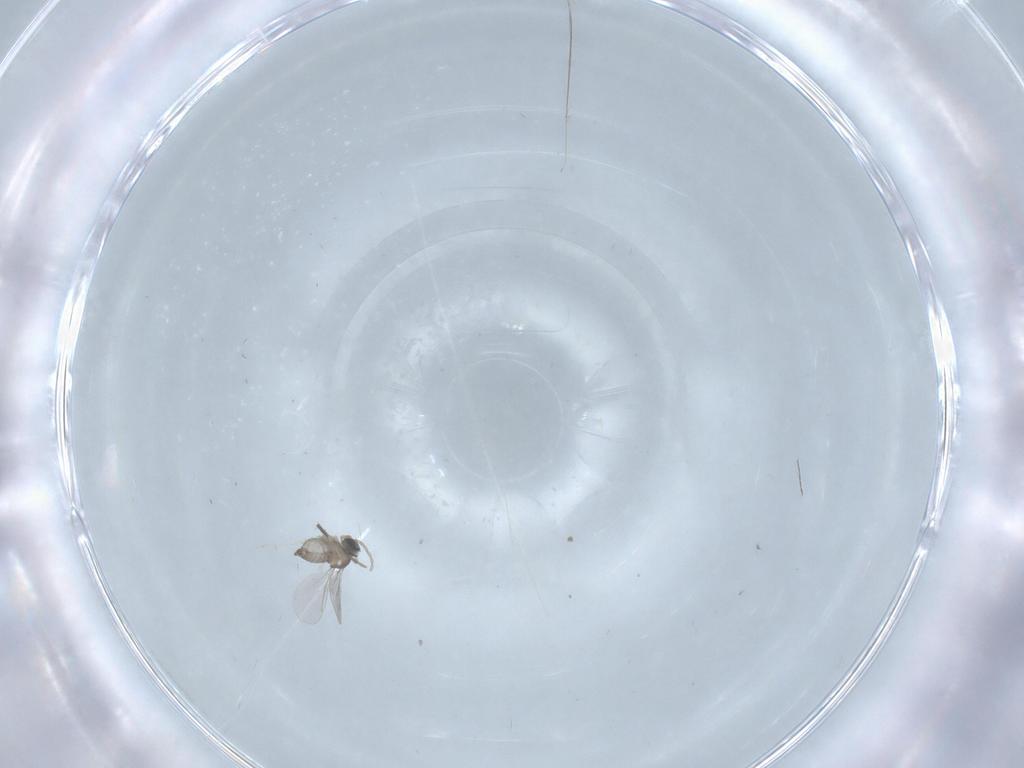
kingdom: Animalia
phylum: Arthropoda
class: Insecta
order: Diptera
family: Cecidomyiidae
